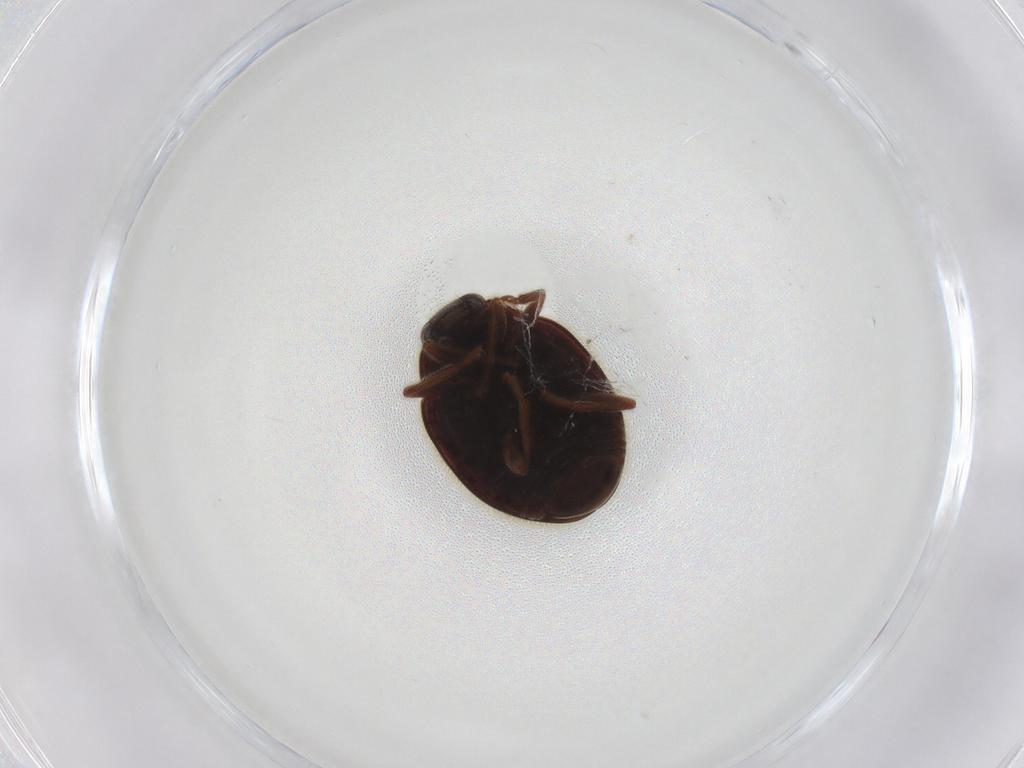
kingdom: Animalia
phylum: Arthropoda
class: Insecta
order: Coleoptera
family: Coccinellidae
